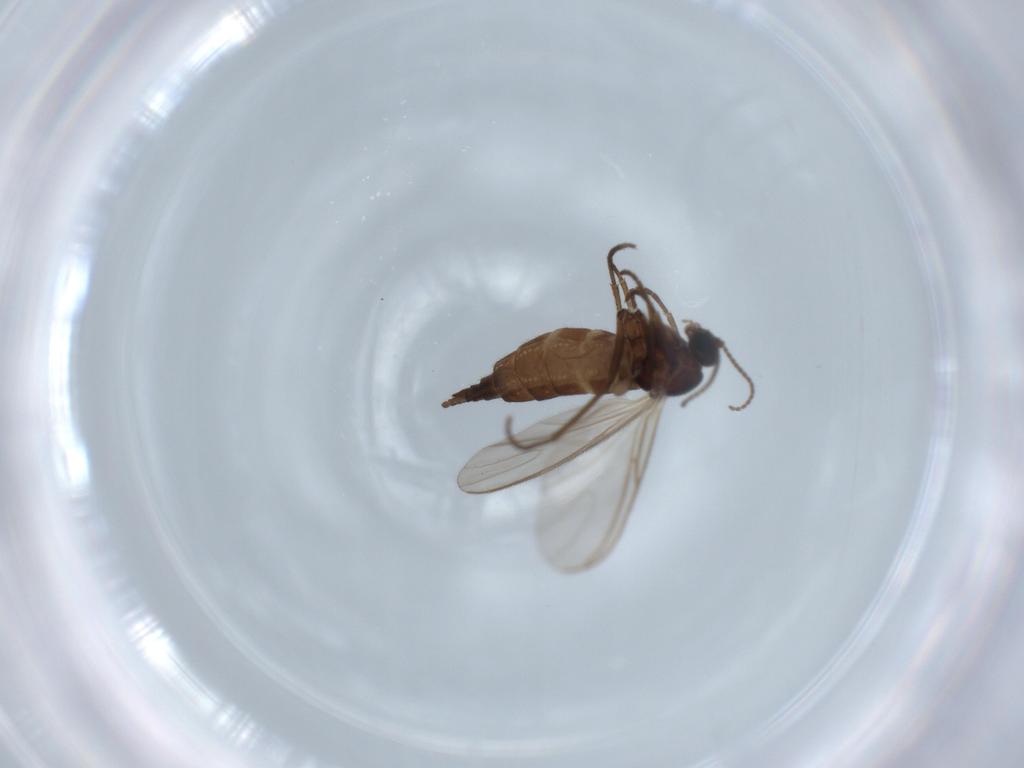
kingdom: Animalia
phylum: Arthropoda
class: Insecta
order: Diptera
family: Sciaridae
